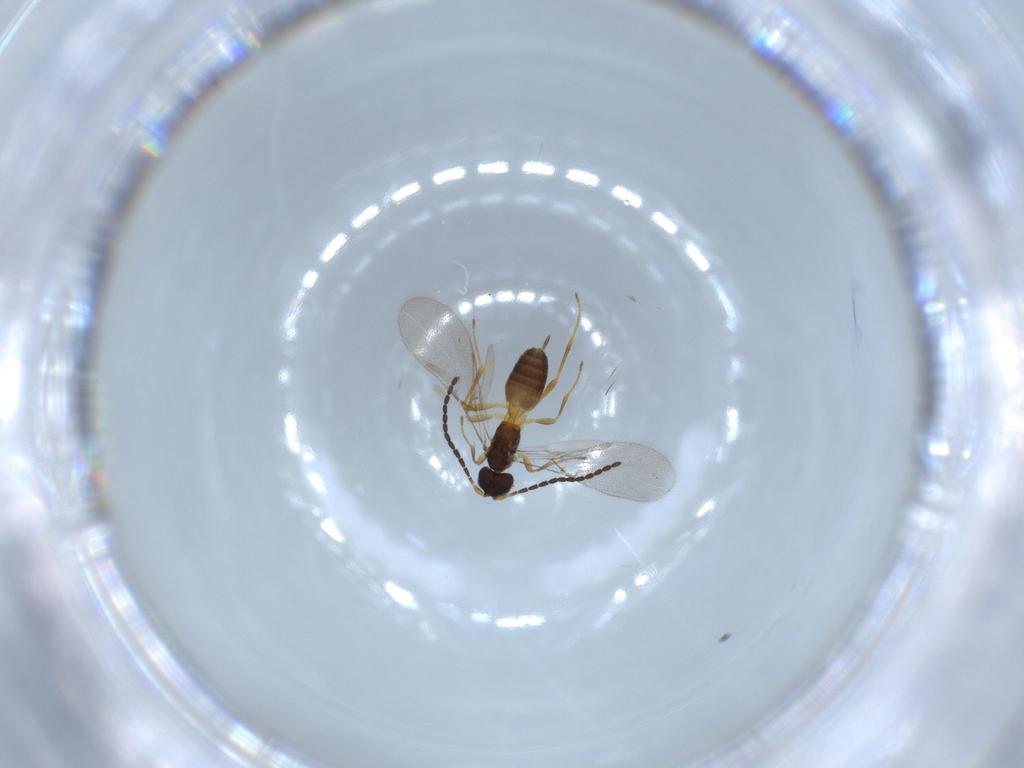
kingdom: Animalia
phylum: Arthropoda
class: Insecta
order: Hymenoptera
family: Braconidae
